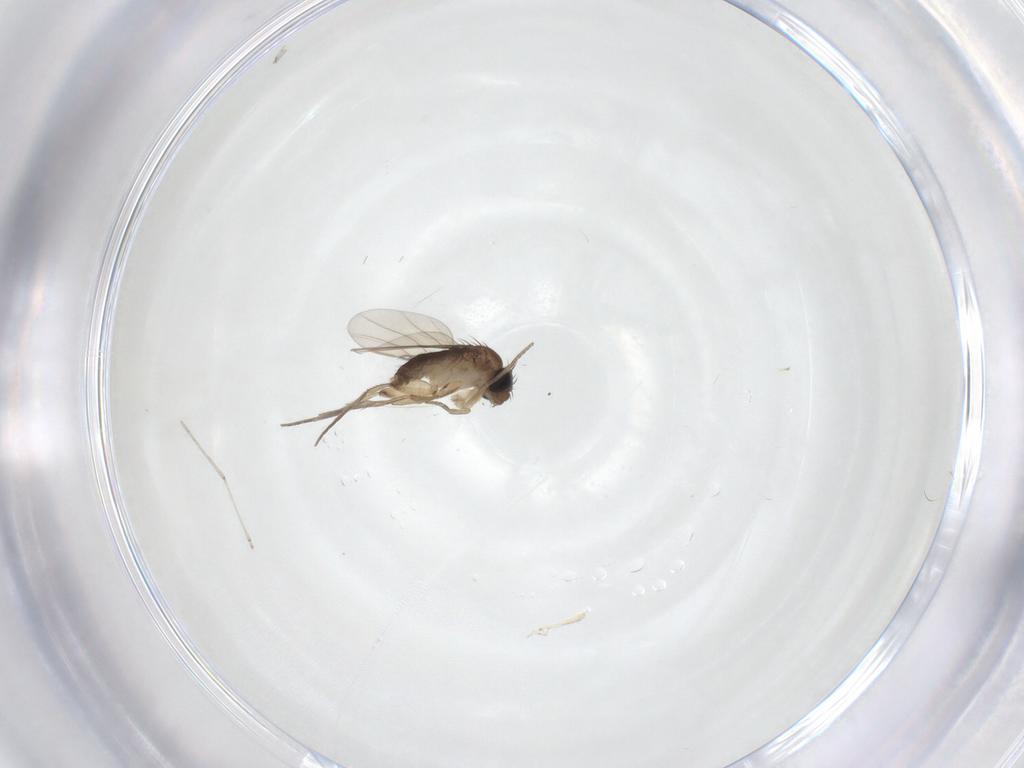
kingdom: Animalia
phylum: Arthropoda
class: Insecta
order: Diptera
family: Phoridae
